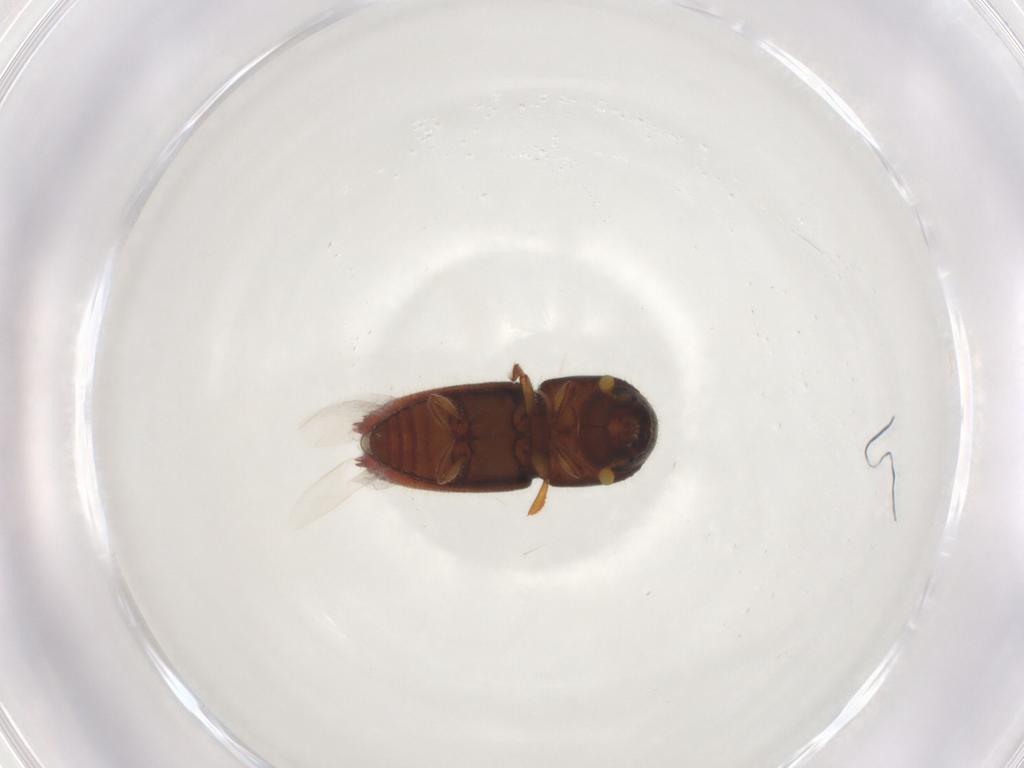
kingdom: Animalia
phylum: Arthropoda
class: Insecta
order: Coleoptera
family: Curculionidae
